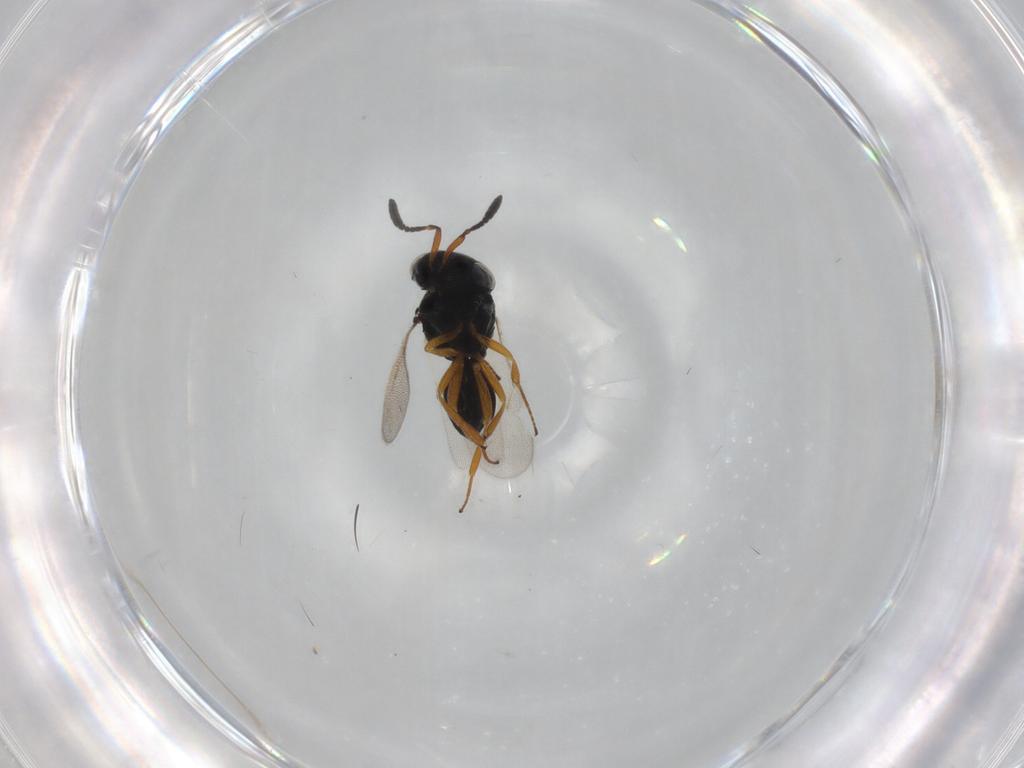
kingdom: Animalia
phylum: Arthropoda
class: Insecta
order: Hymenoptera
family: Scelionidae
